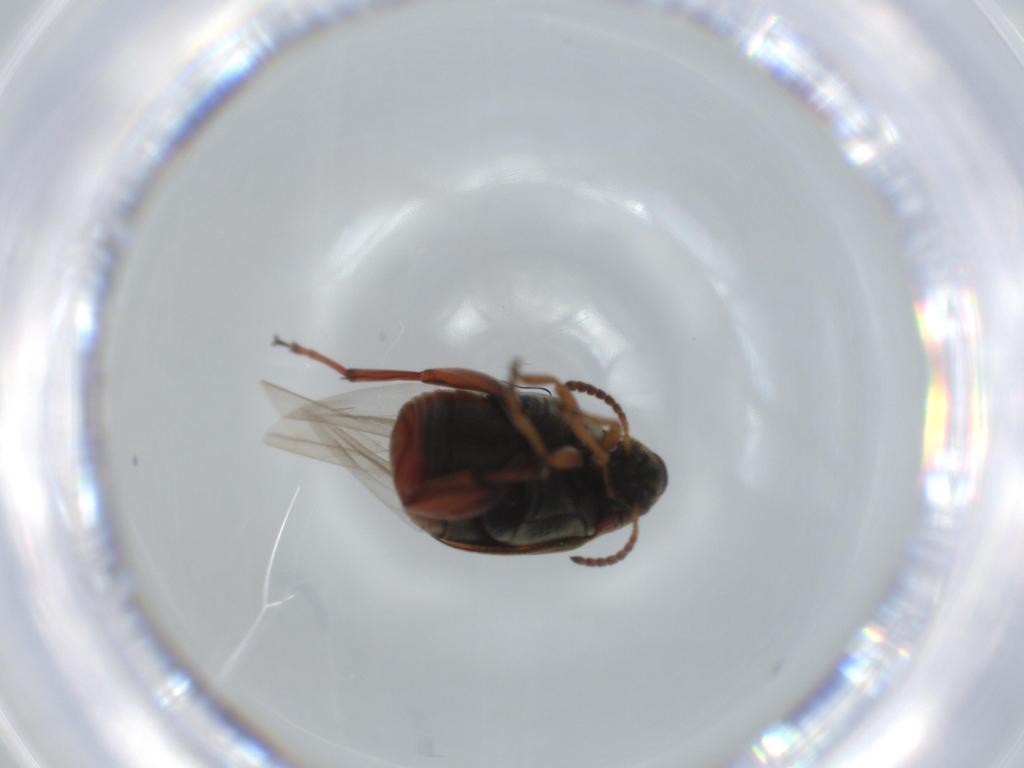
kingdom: Animalia
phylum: Arthropoda
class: Insecta
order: Coleoptera
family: Chrysomelidae
